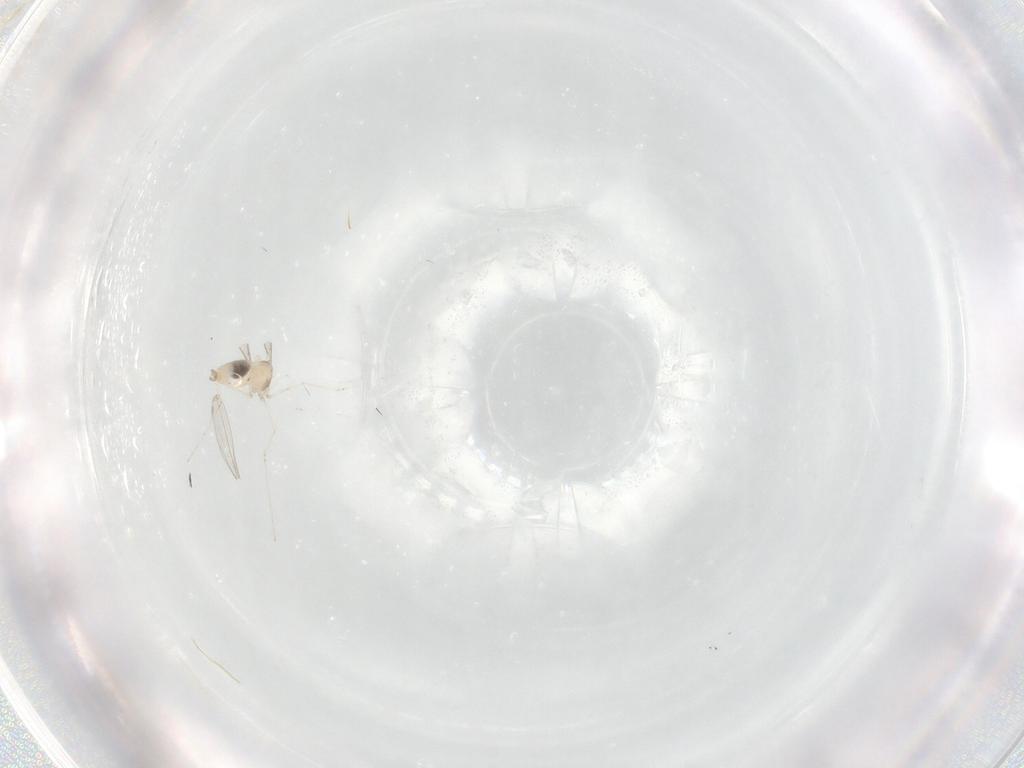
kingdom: Animalia
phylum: Arthropoda
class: Insecta
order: Diptera
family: Cecidomyiidae
